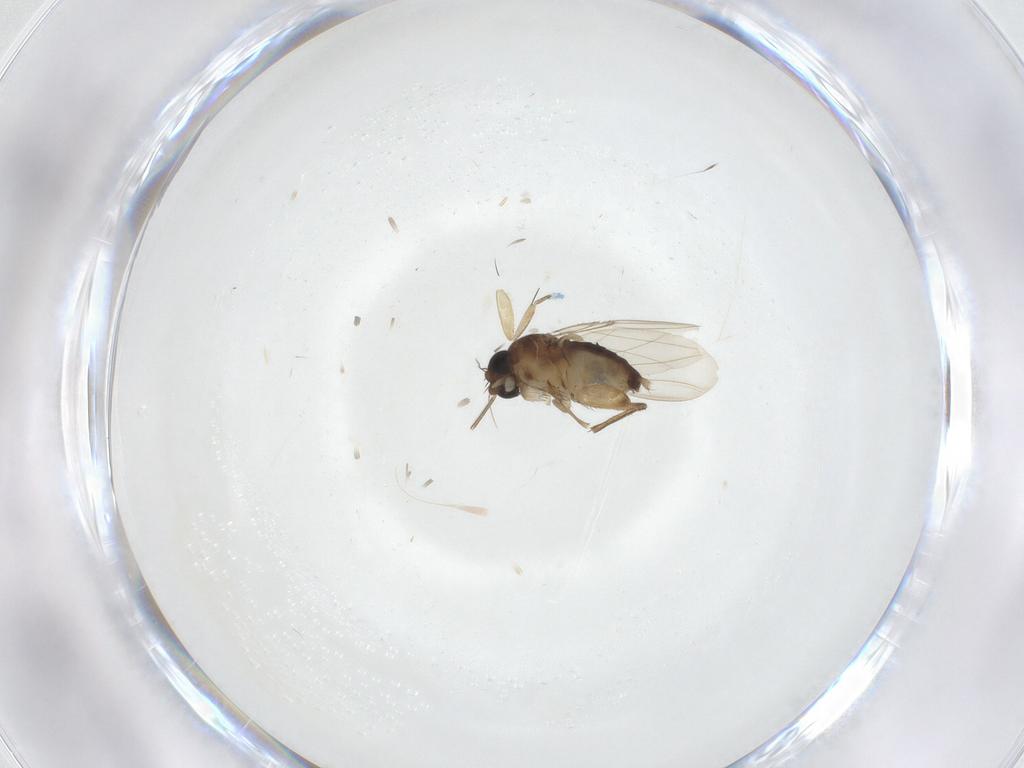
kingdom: Animalia
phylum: Arthropoda
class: Insecta
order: Diptera
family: Phoridae
